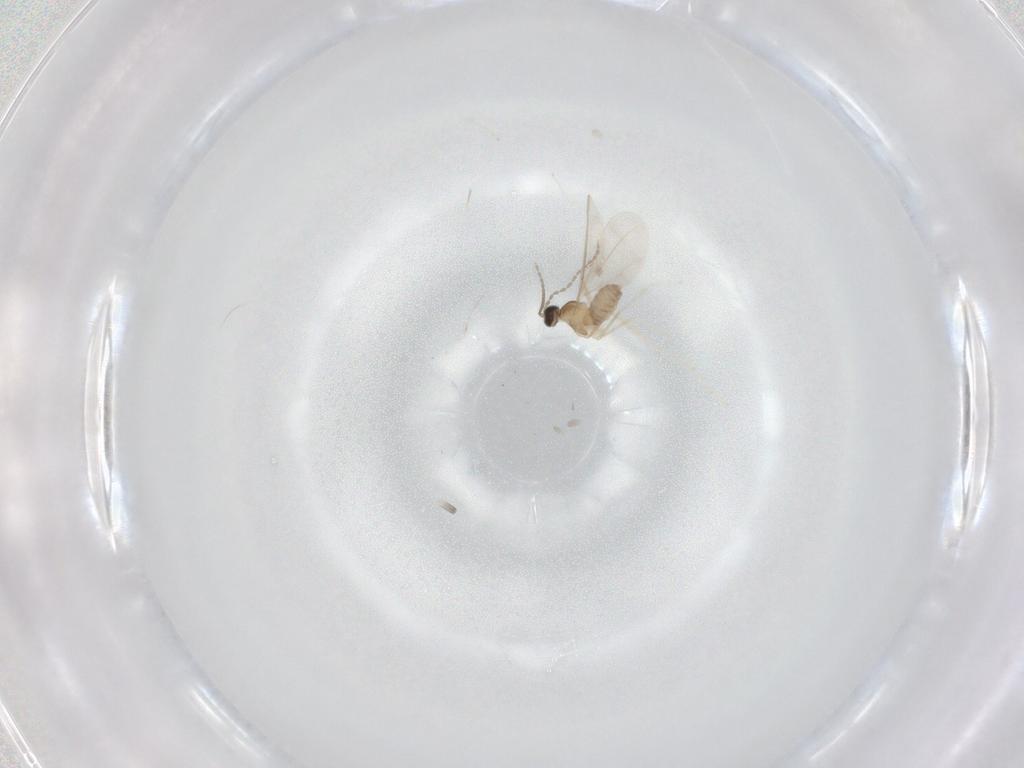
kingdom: Animalia
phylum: Arthropoda
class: Insecta
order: Diptera
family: Cecidomyiidae
